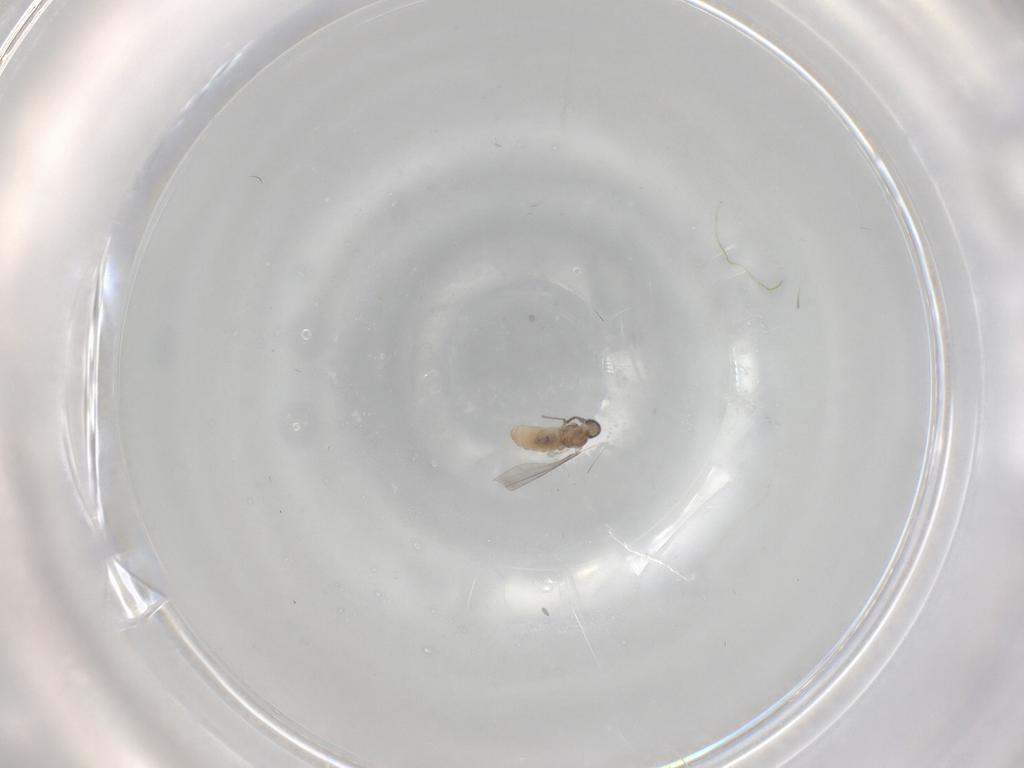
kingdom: Animalia
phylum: Arthropoda
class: Insecta
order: Diptera
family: Cecidomyiidae
